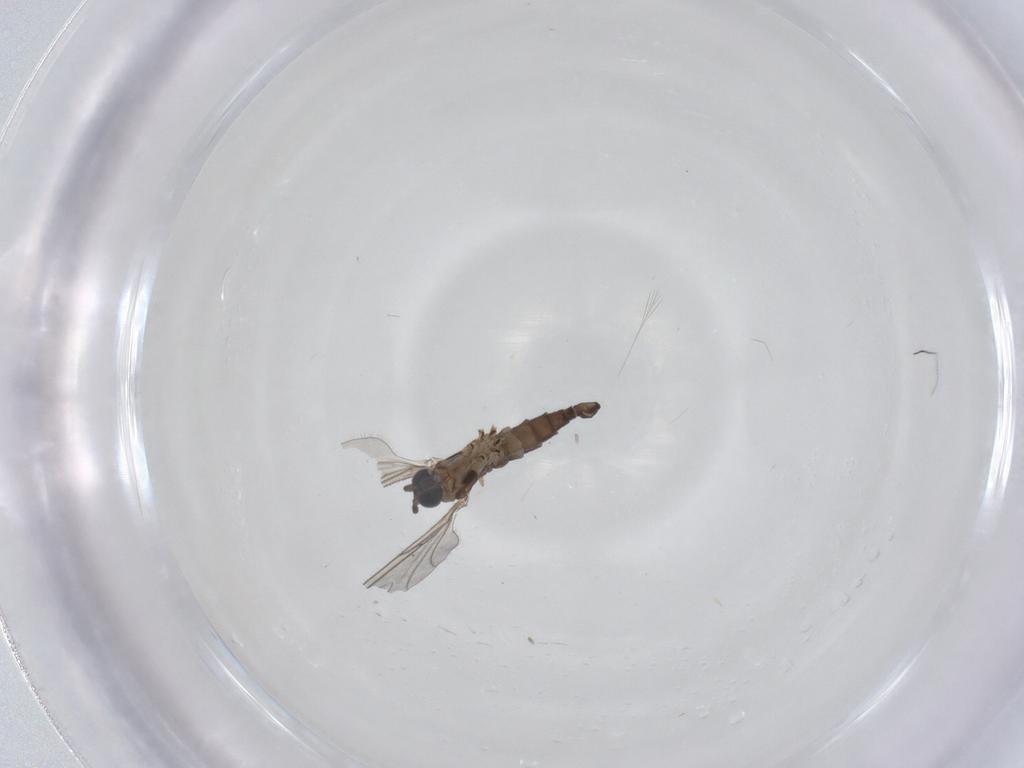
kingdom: Animalia
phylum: Arthropoda
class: Insecta
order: Diptera
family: Sciaridae
